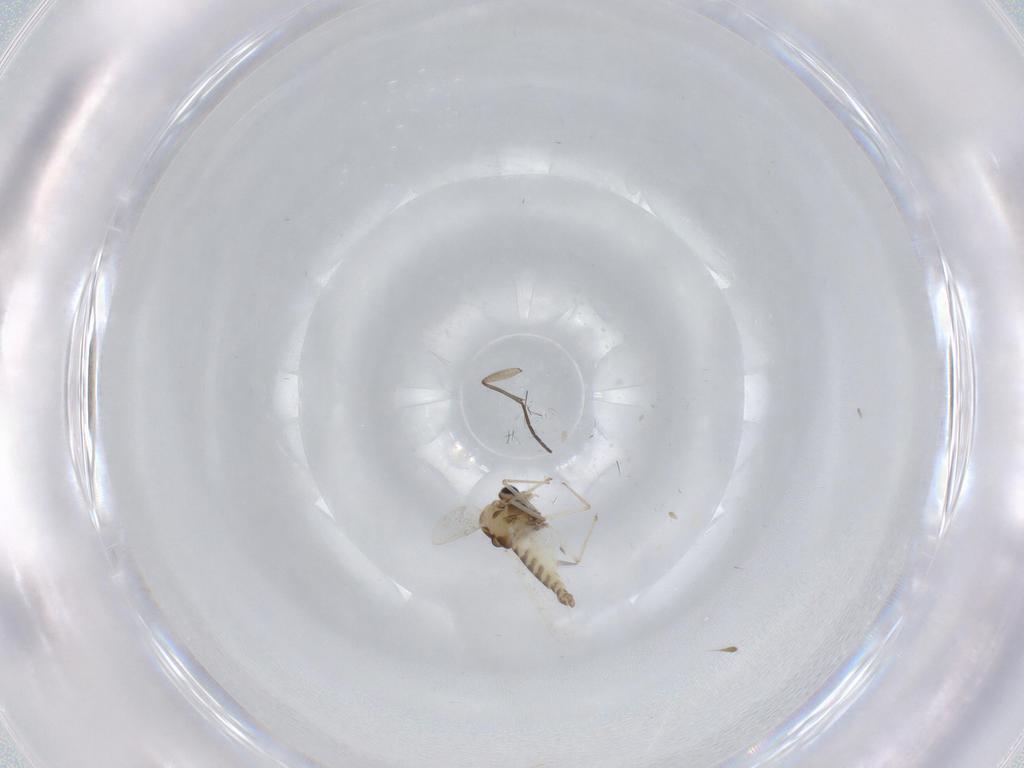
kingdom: Animalia
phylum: Arthropoda
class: Insecta
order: Diptera
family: Chironomidae
